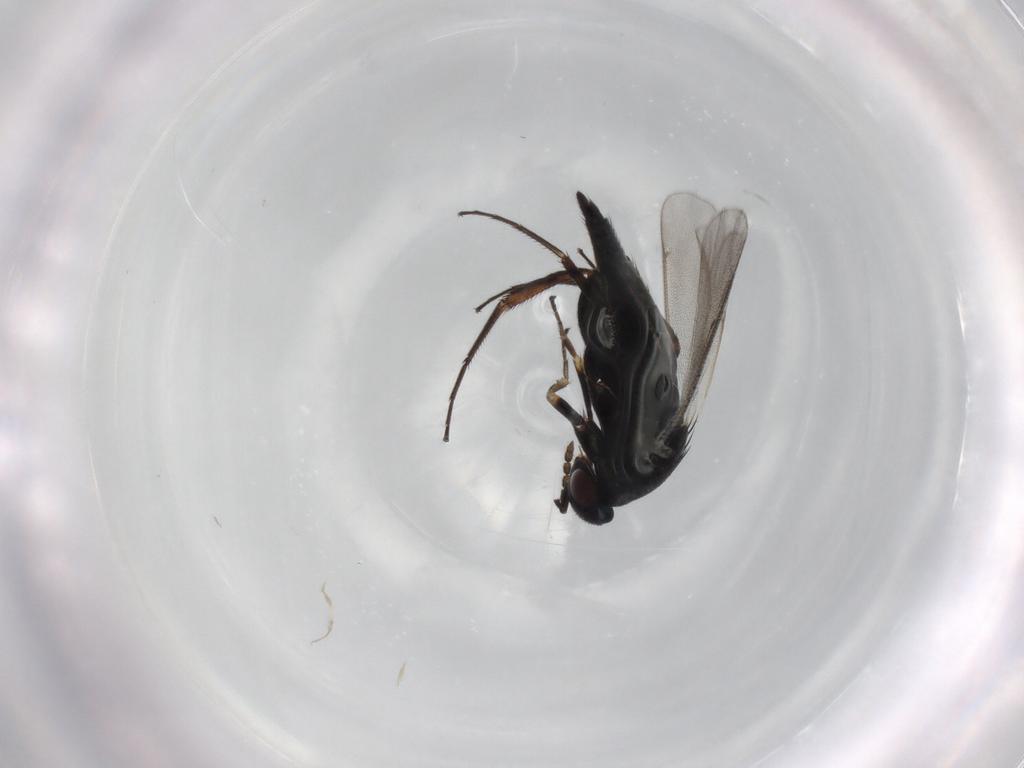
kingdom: Animalia
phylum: Arthropoda
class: Insecta
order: Hymenoptera
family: Eulophidae
